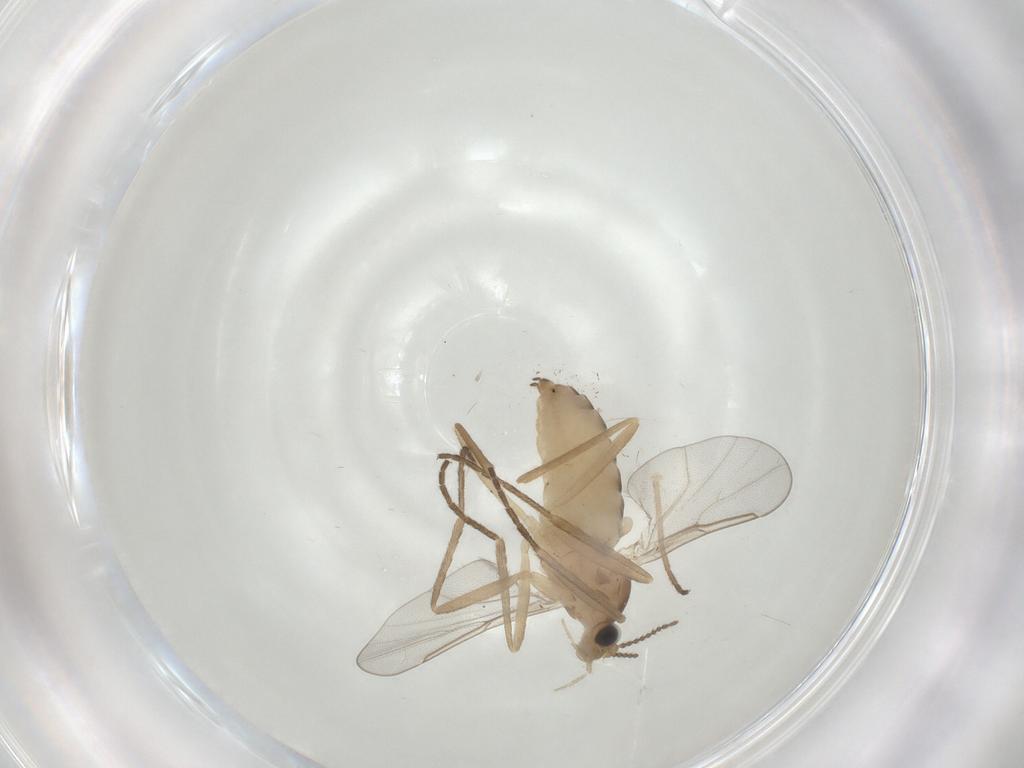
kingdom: Animalia
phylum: Arthropoda
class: Insecta
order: Diptera
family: Cecidomyiidae
